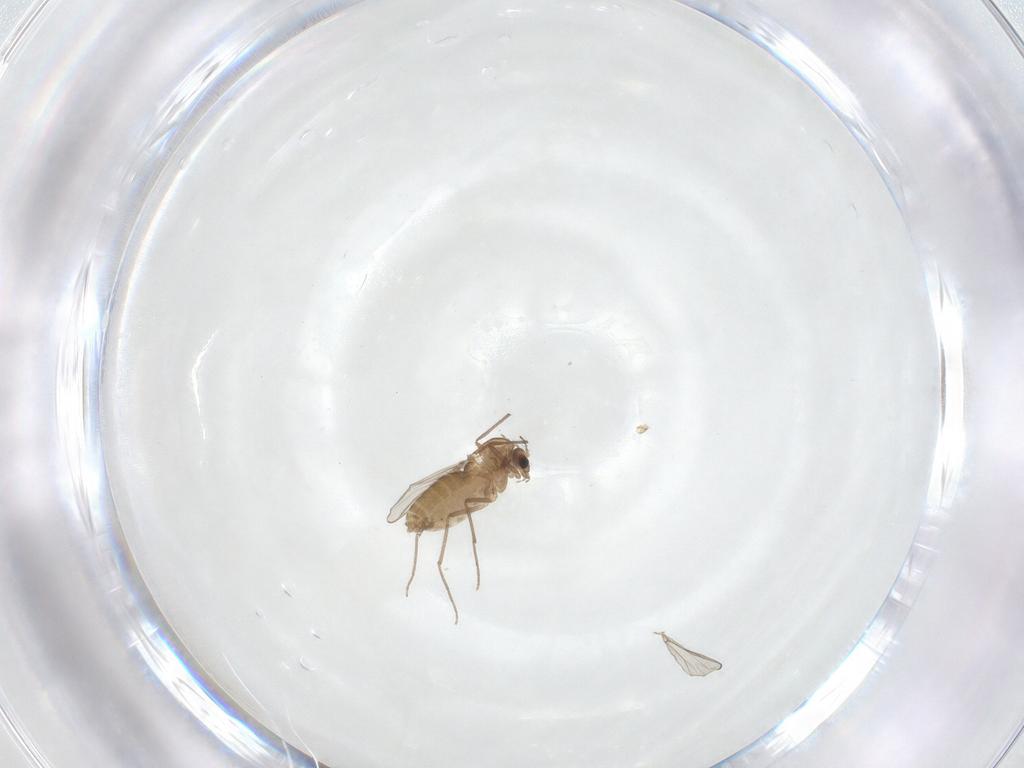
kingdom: Animalia
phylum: Arthropoda
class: Insecta
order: Diptera
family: Chironomidae
